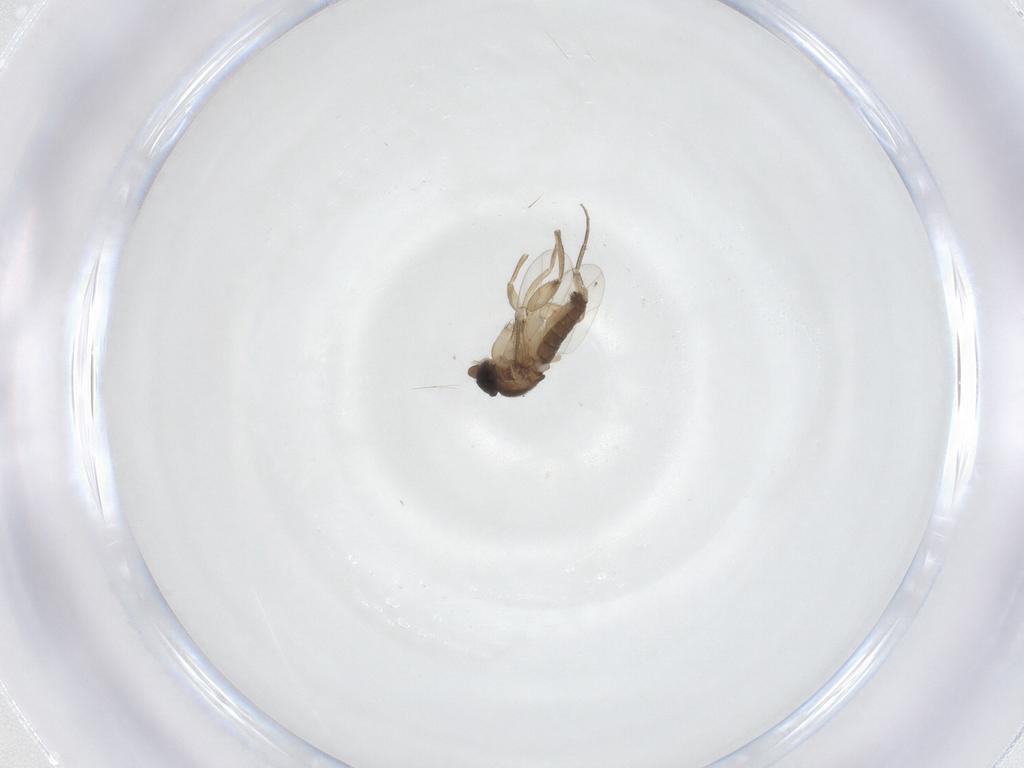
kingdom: Animalia
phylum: Arthropoda
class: Insecta
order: Diptera
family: Phoridae
